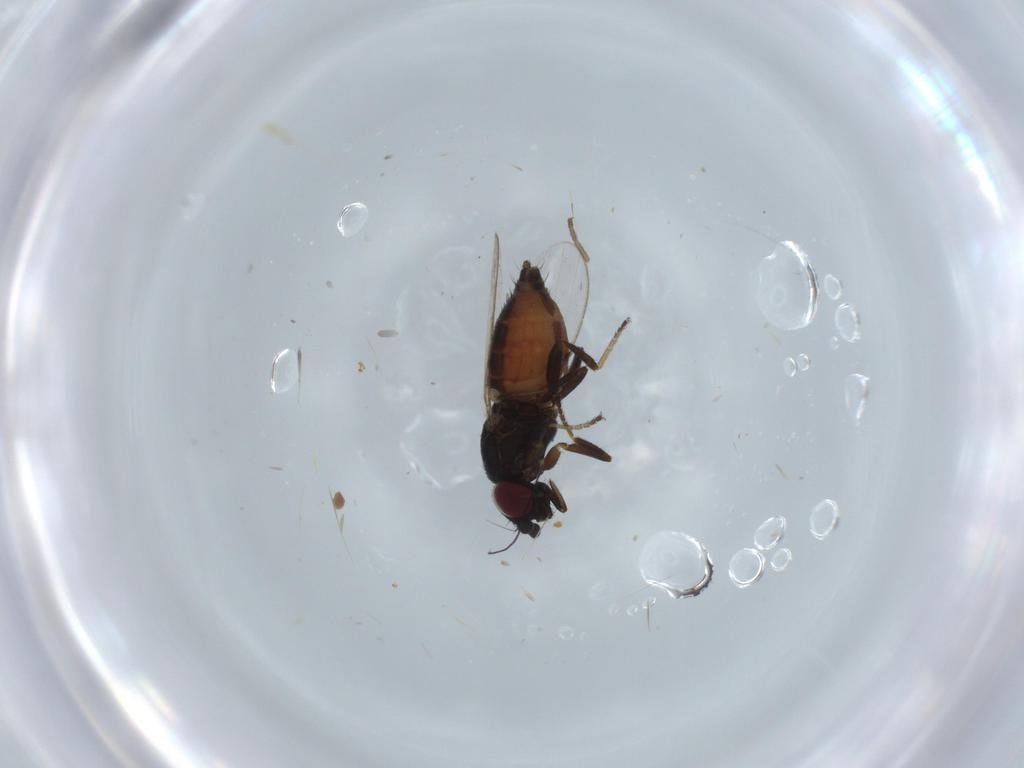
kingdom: Animalia
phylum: Arthropoda
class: Insecta
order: Diptera
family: Milichiidae
